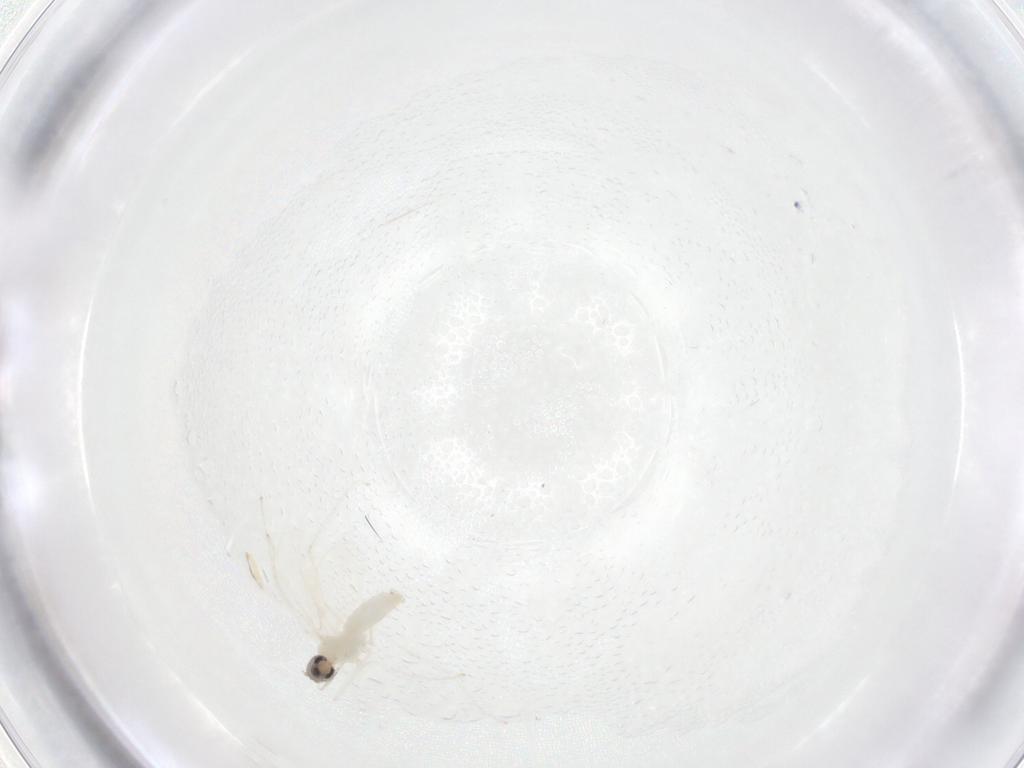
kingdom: Animalia
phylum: Arthropoda
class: Insecta
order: Diptera
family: Cecidomyiidae
